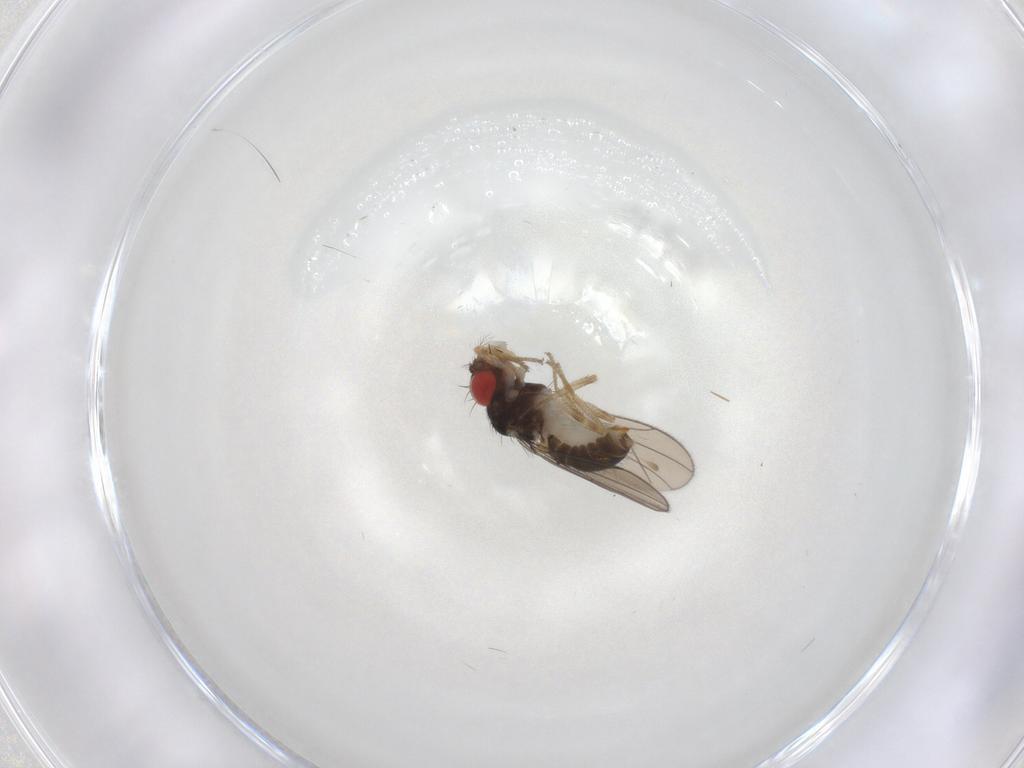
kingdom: Animalia
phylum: Arthropoda
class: Insecta
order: Diptera
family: Drosophilidae
